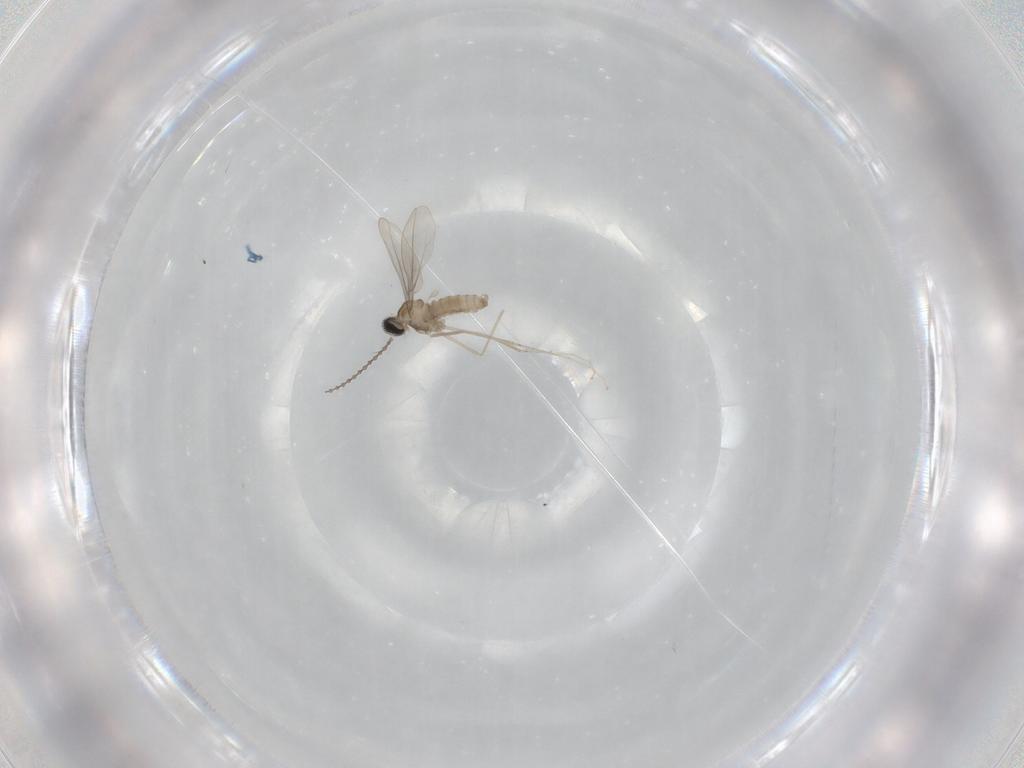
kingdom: Animalia
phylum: Arthropoda
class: Insecta
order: Diptera
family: Cecidomyiidae
